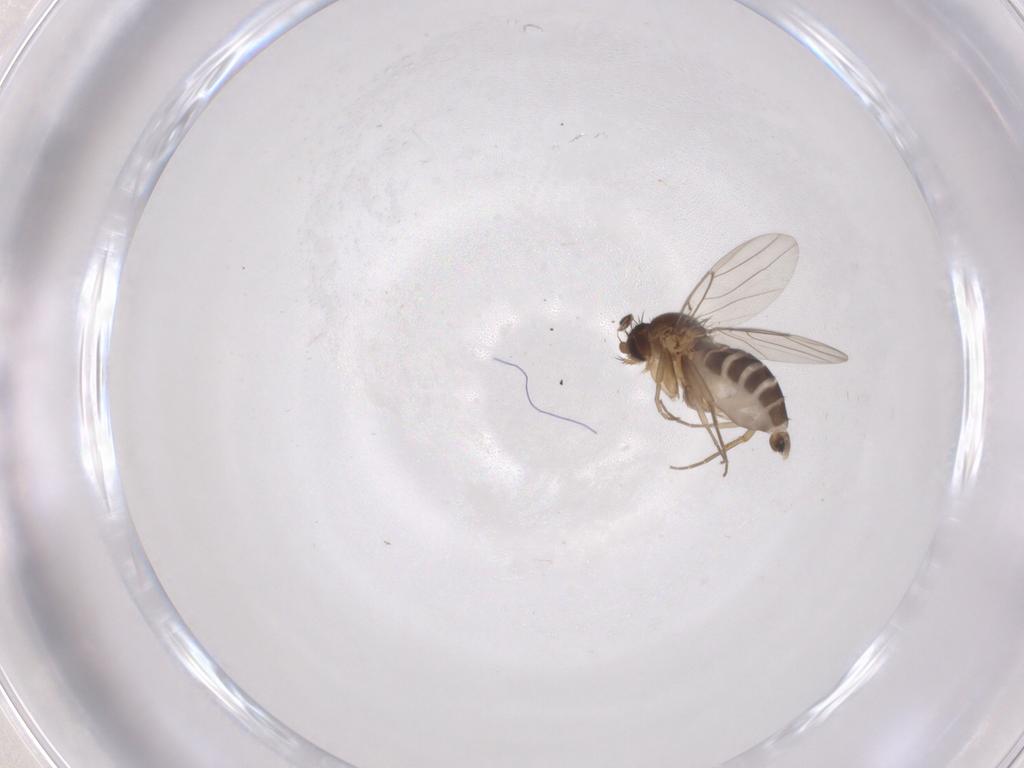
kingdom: Animalia
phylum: Arthropoda
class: Insecta
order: Diptera
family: Phoridae
